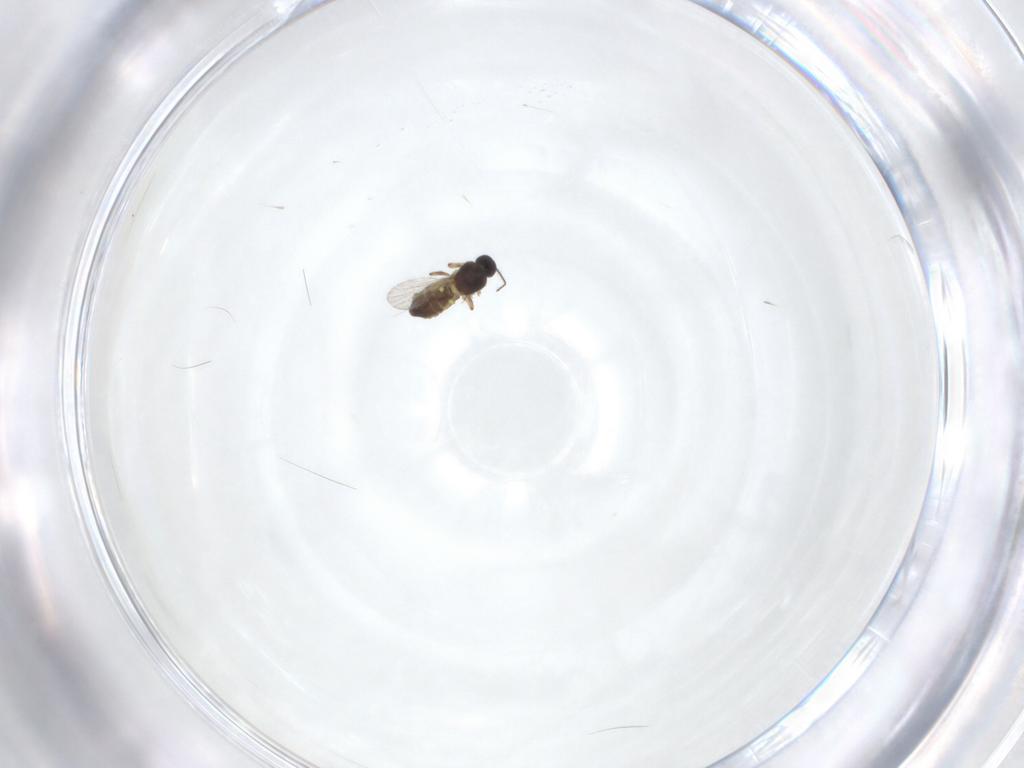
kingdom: Animalia
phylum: Arthropoda
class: Insecta
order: Diptera
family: Ceratopogonidae
